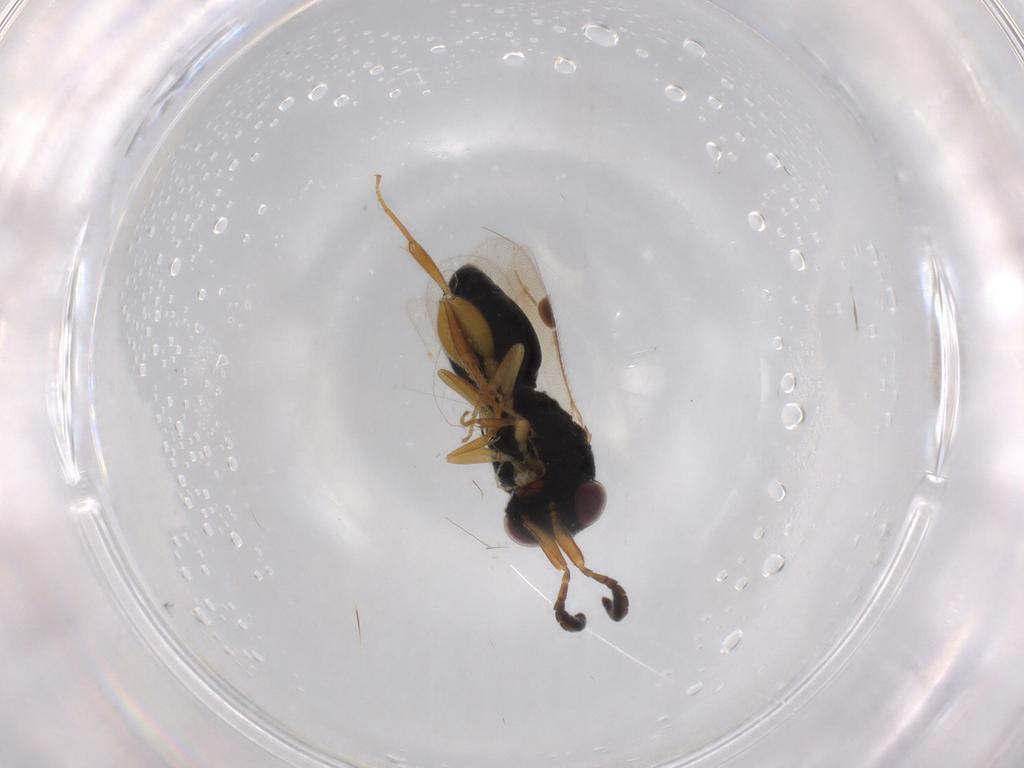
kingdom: Animalia
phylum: Arthropoda
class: Insecta
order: Hymenoptera
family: Megaspilidae
